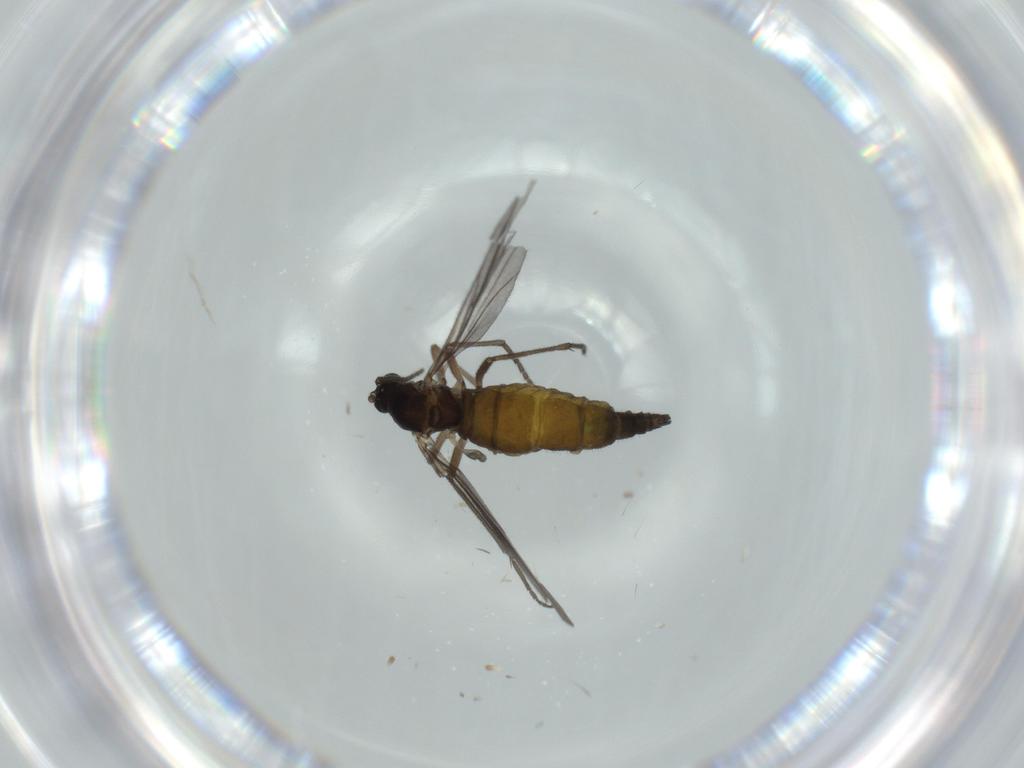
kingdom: Animalia
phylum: Arthropoda
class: Insecta
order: Diptera
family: Sciaridae
